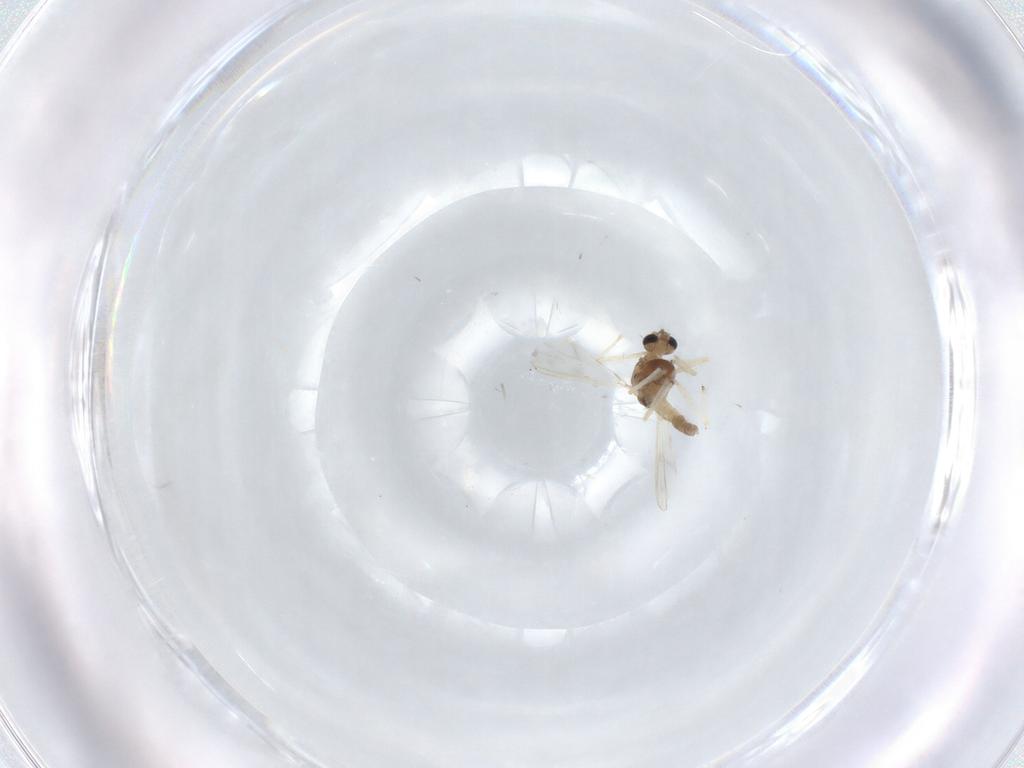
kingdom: Animalia
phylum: Arthropoda
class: Insecta
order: Diptera
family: Chironomidae
